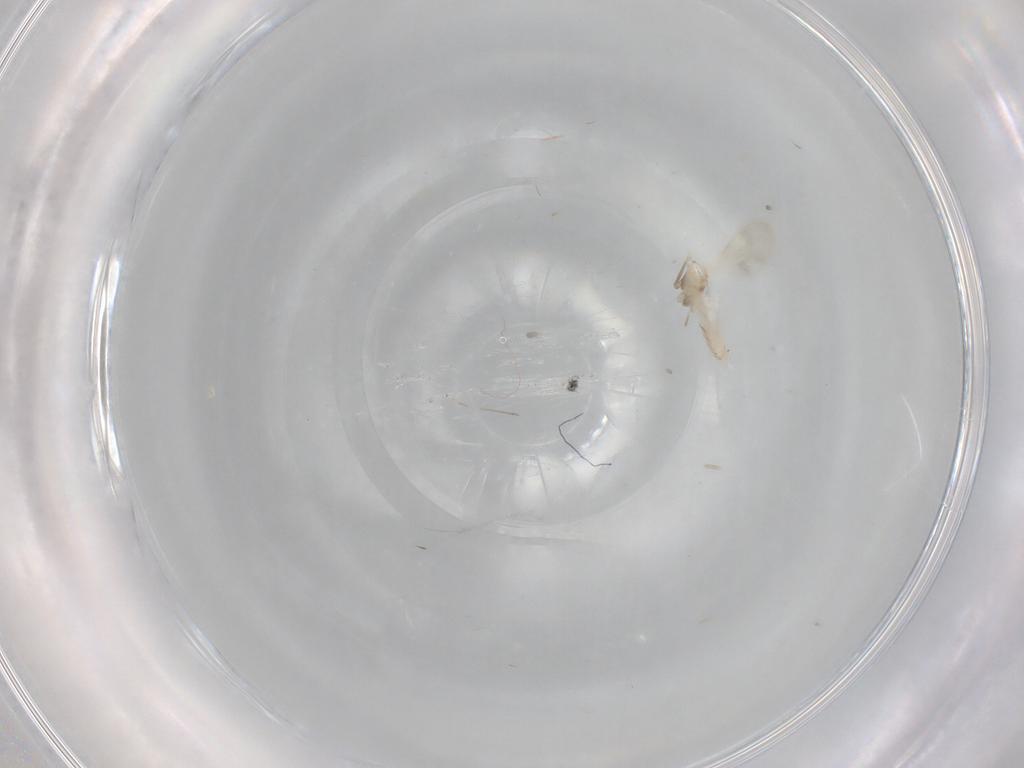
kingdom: Animalia
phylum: Arthropoda
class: Insecta
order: Diptera
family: Cecidomyiidae
